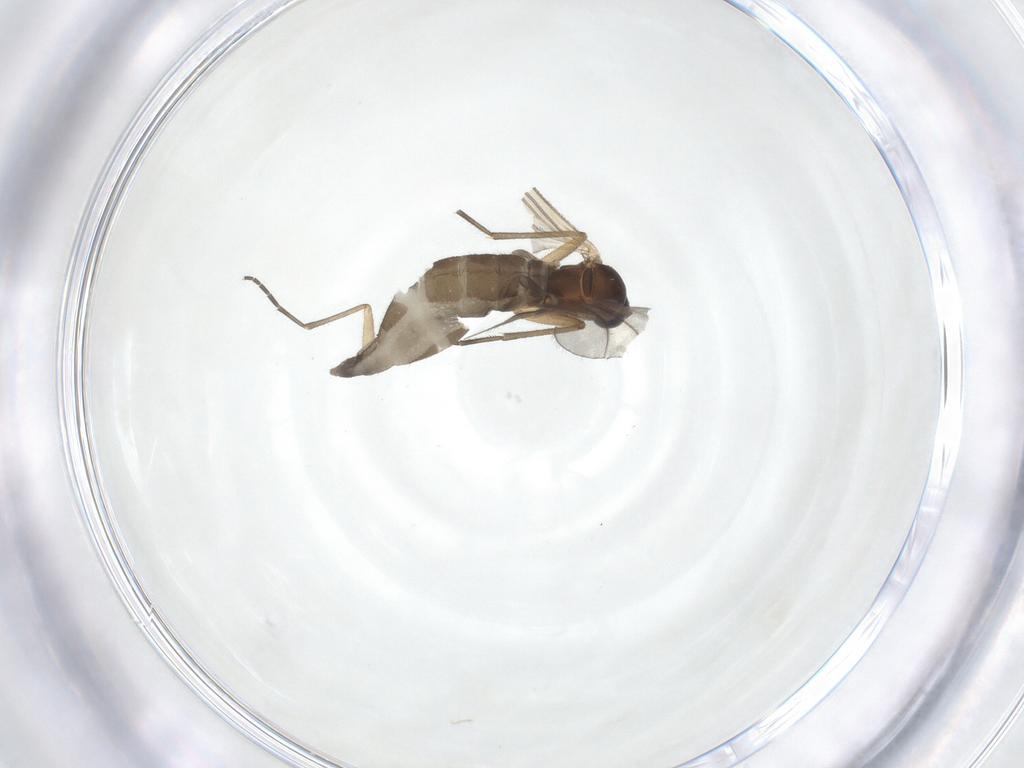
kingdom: Animalia
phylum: Arthropoda
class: Insecta
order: Diptera
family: Sciaridae
